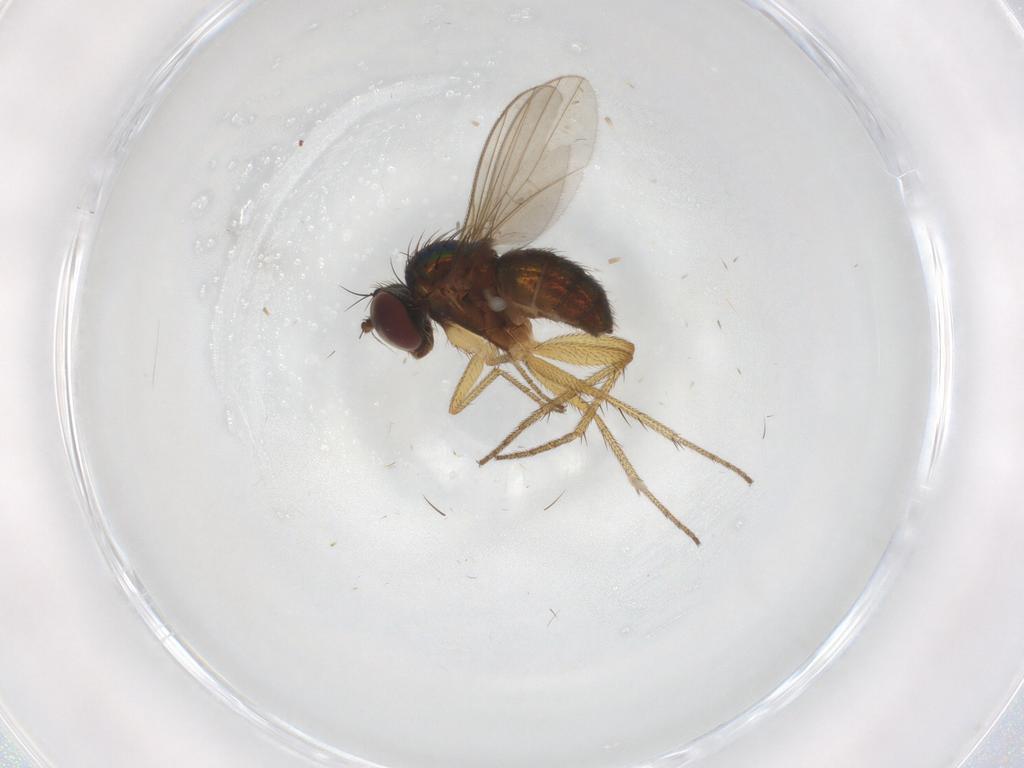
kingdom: Animalia
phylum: Arthropoda
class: Insecta
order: Diptera
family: Dolichopodidae
